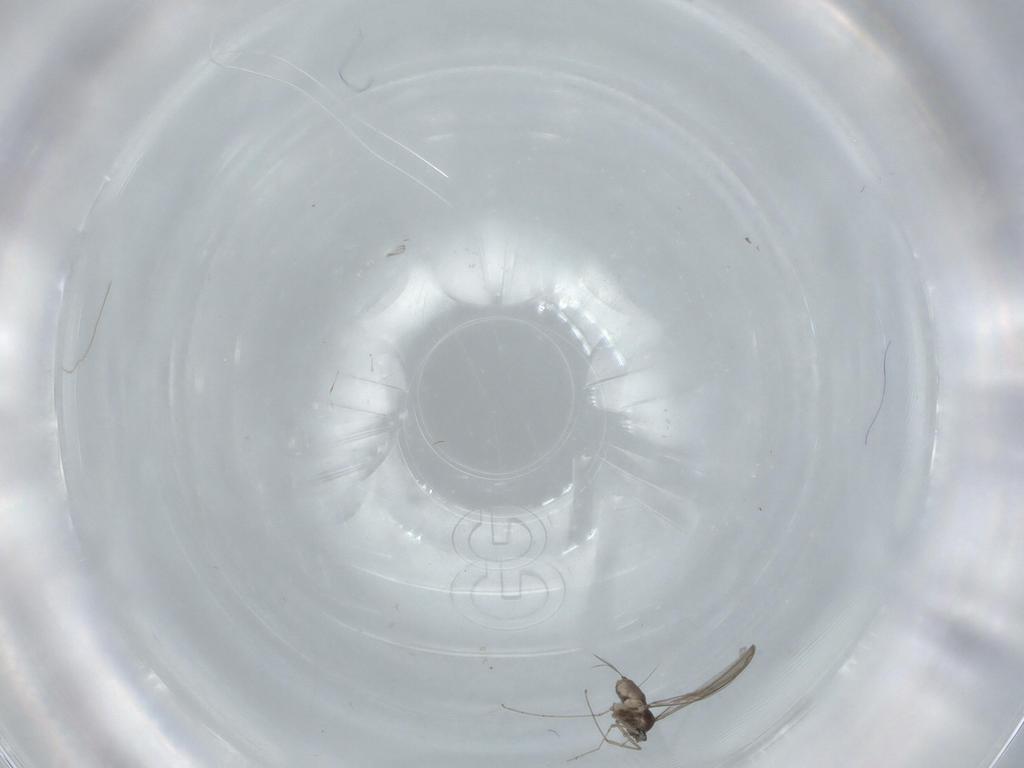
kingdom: Animalia
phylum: Arthropoda
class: Insecta
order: Diptera
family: Cecidomyiidae
